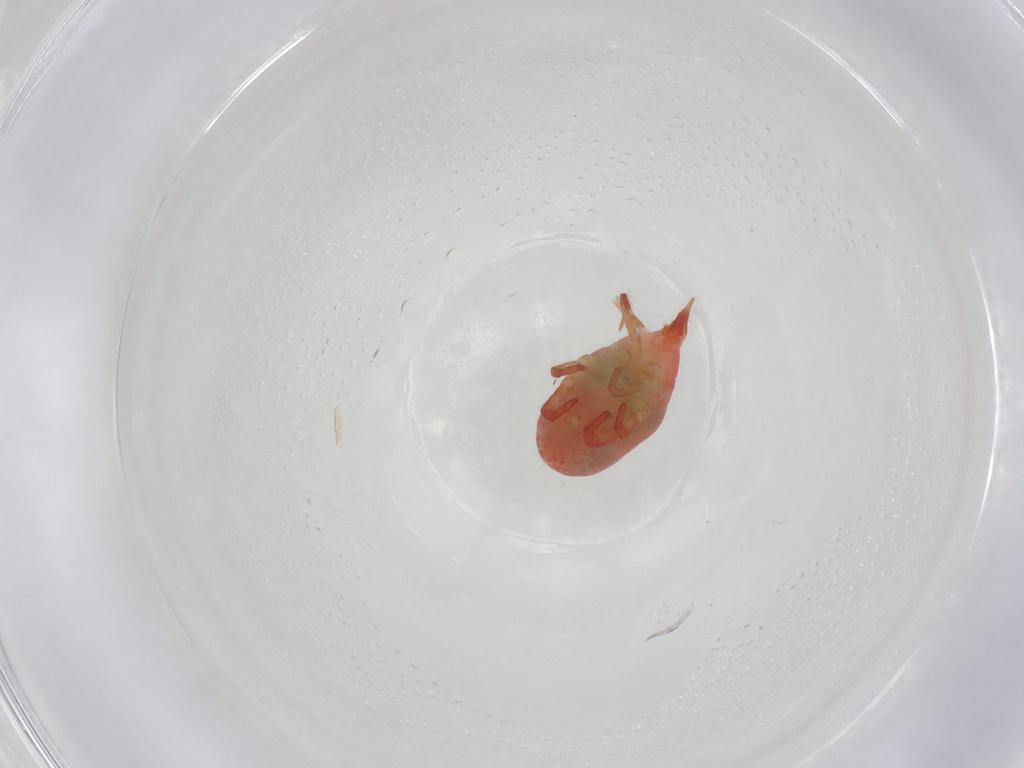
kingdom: Animalia
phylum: Arthropoda
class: Arachnida
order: Trombidiformes
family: Bdellidae
